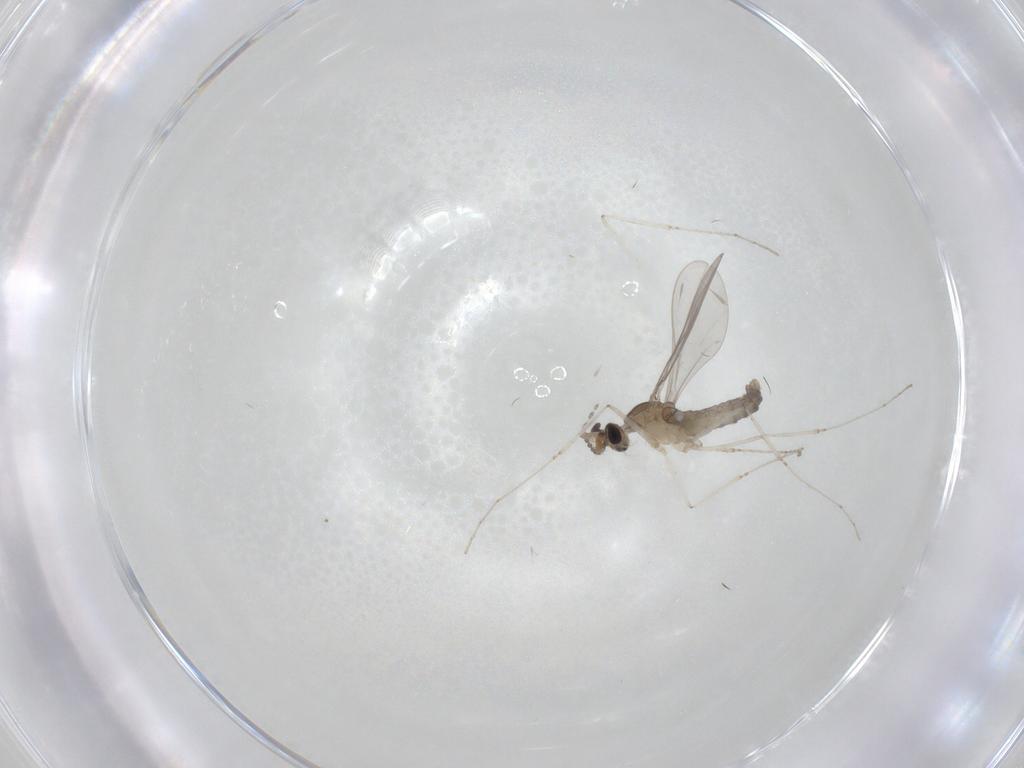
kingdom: Animalia
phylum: Arthropoda
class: Insecta
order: Diptera
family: Cecidomyiidae
